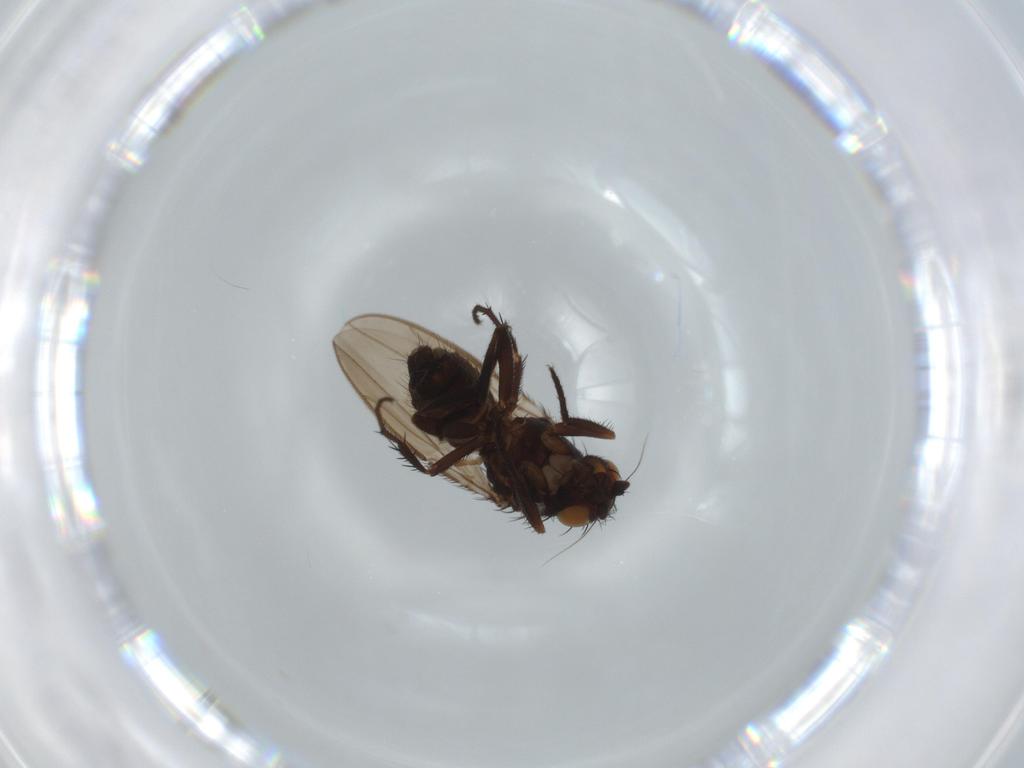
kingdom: Animalia
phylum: Arthropoda
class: Insecta
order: Diptera
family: Sphaeroceridae
